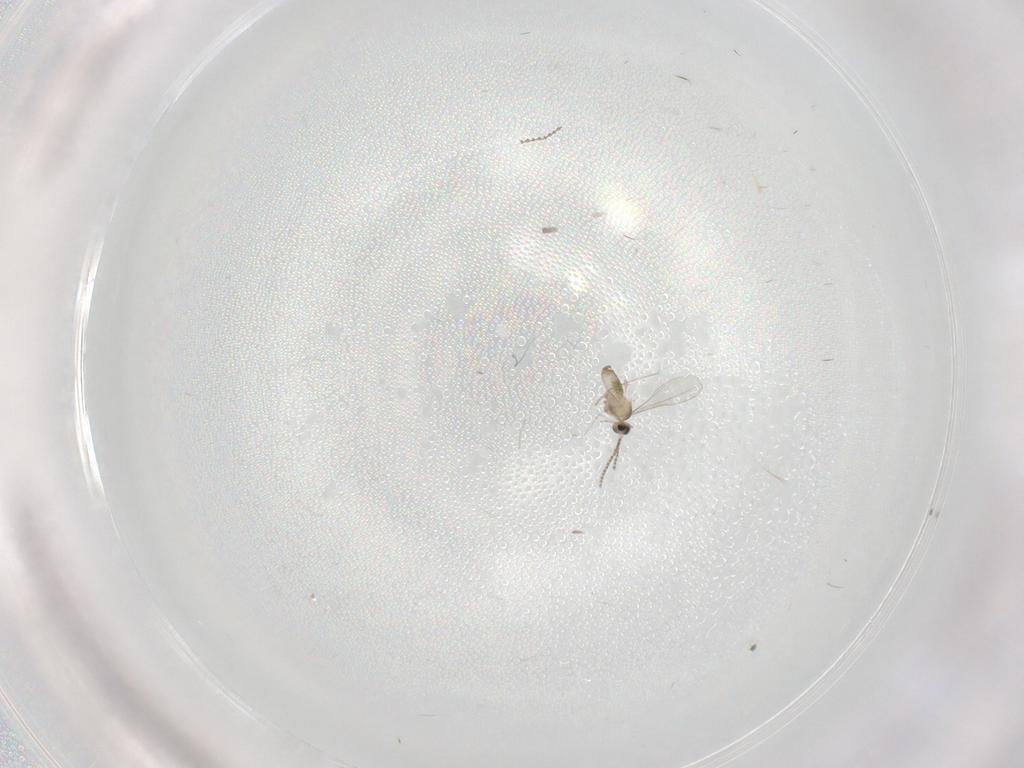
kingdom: Animalia
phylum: Arthropoda
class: Insecta
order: Diptera
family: Cecidomyiidae
